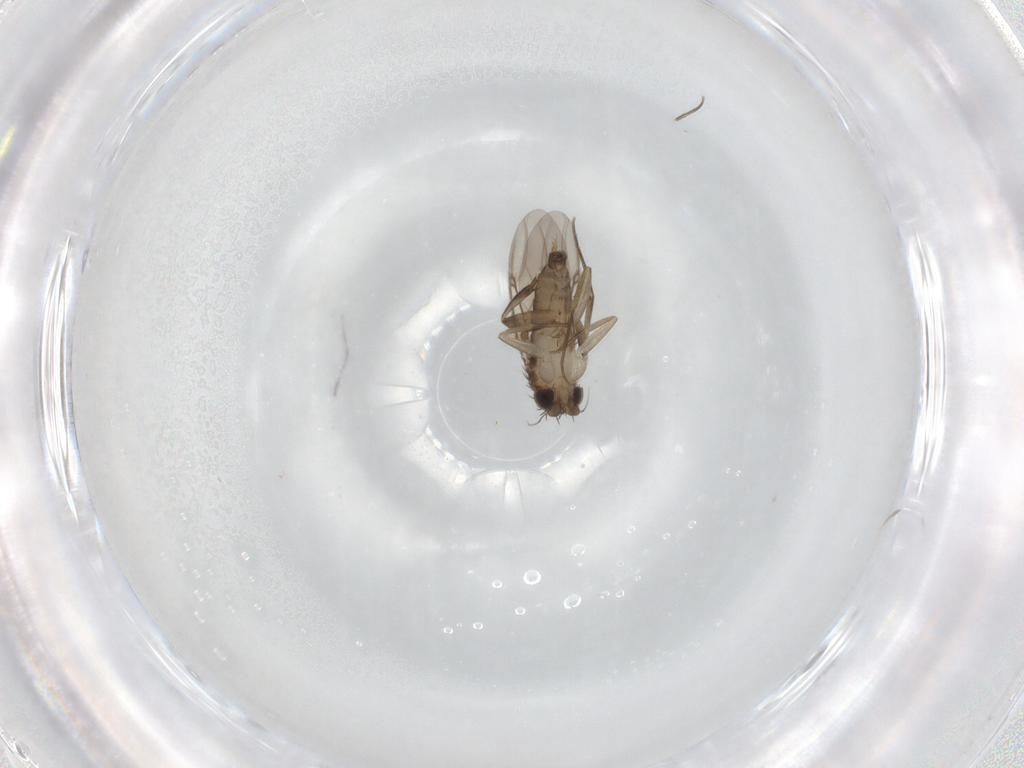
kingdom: Animalia
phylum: Arthropoda
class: Insecta
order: Diptera
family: Phoridae
